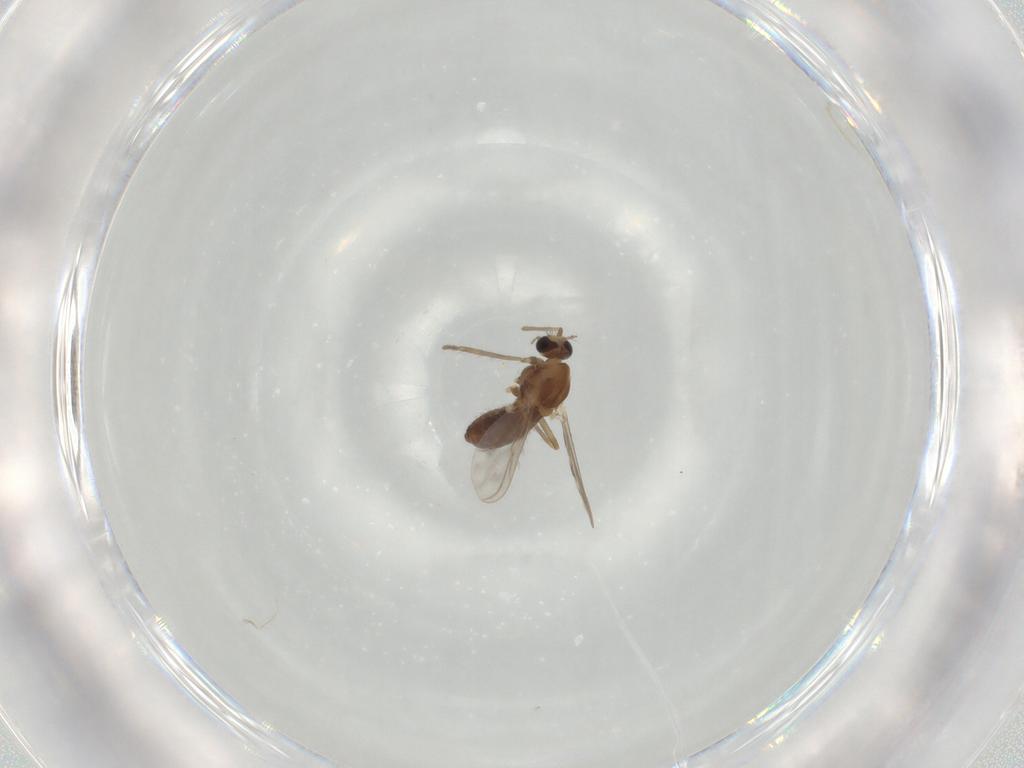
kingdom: Animalia
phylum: Arthropoda
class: Insecta
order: Diptera
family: Chironomidae
